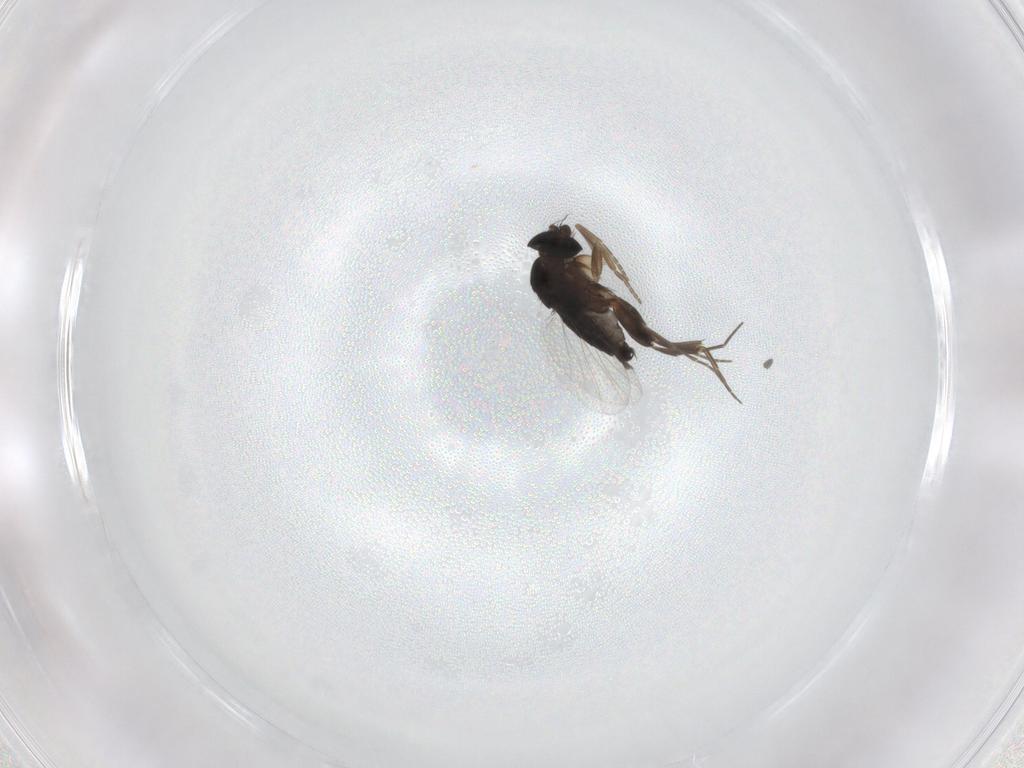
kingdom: Animalia
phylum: Arthropoda
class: Insecta
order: Diptera
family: Phoridae
